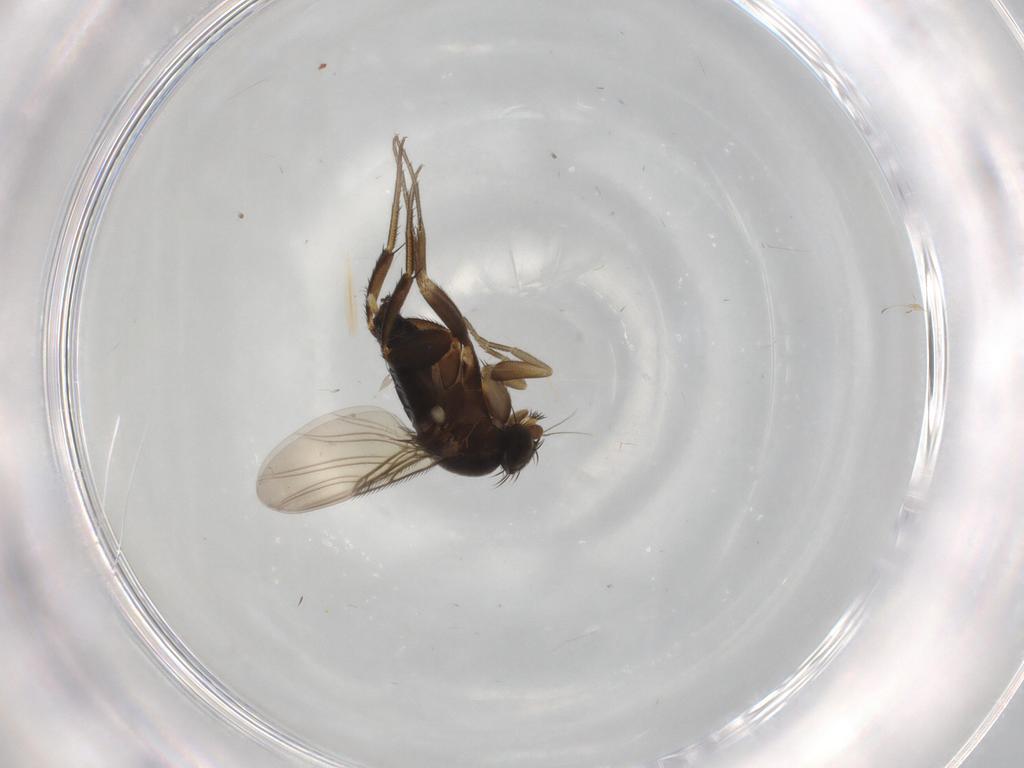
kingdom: Animalia
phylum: Arthropoda
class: Insecta
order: Diptera
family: Phoridae
